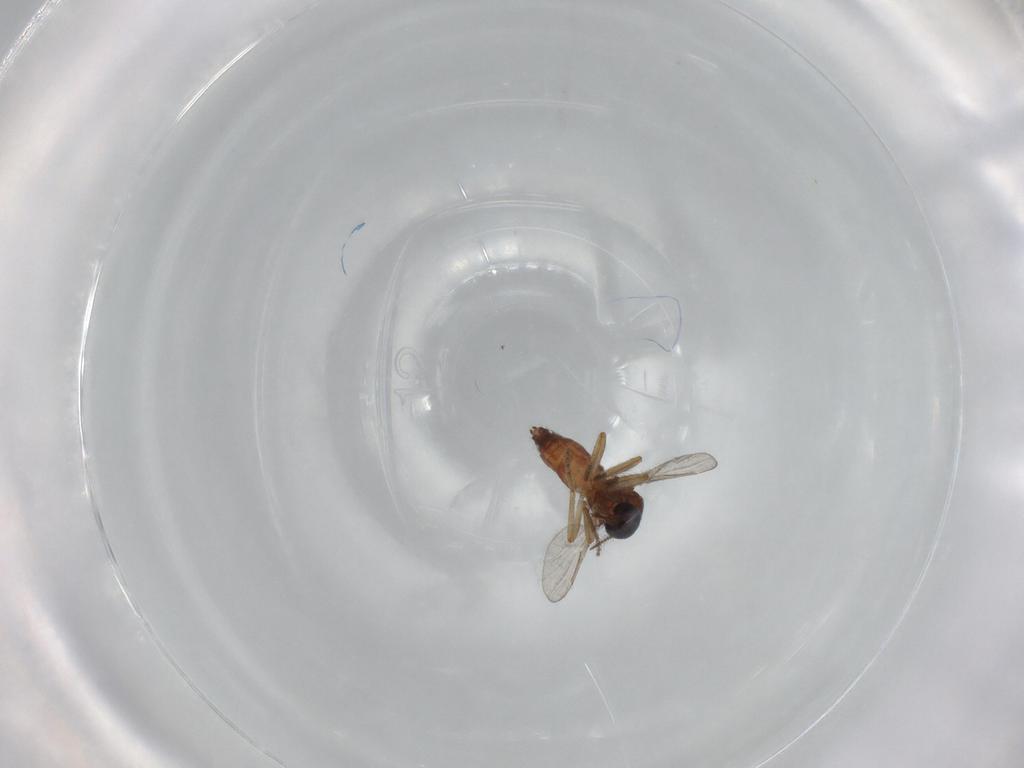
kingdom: Animalia
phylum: Arthropoda
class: Insecta
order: Diptera
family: Ceratopogonidae
